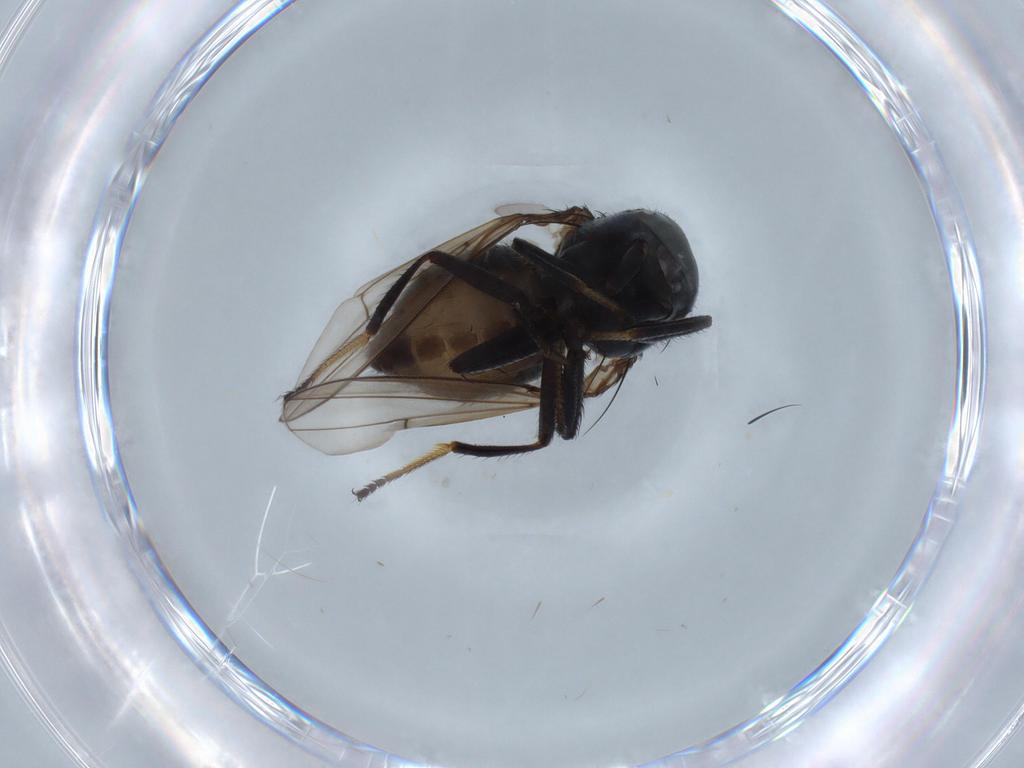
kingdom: Animalia
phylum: Arthropoda
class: Insecta
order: Diptera
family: Ephydridae
